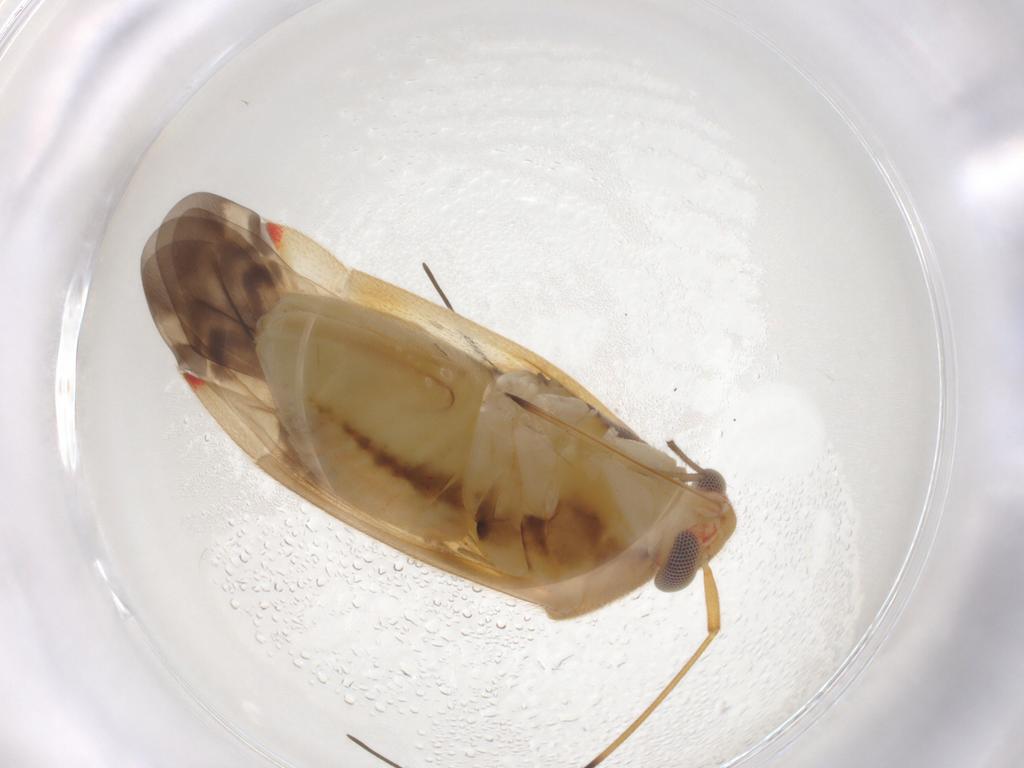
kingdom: Animalia
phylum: Arthropoda
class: Insecta
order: Hemiptera
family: Miridae
